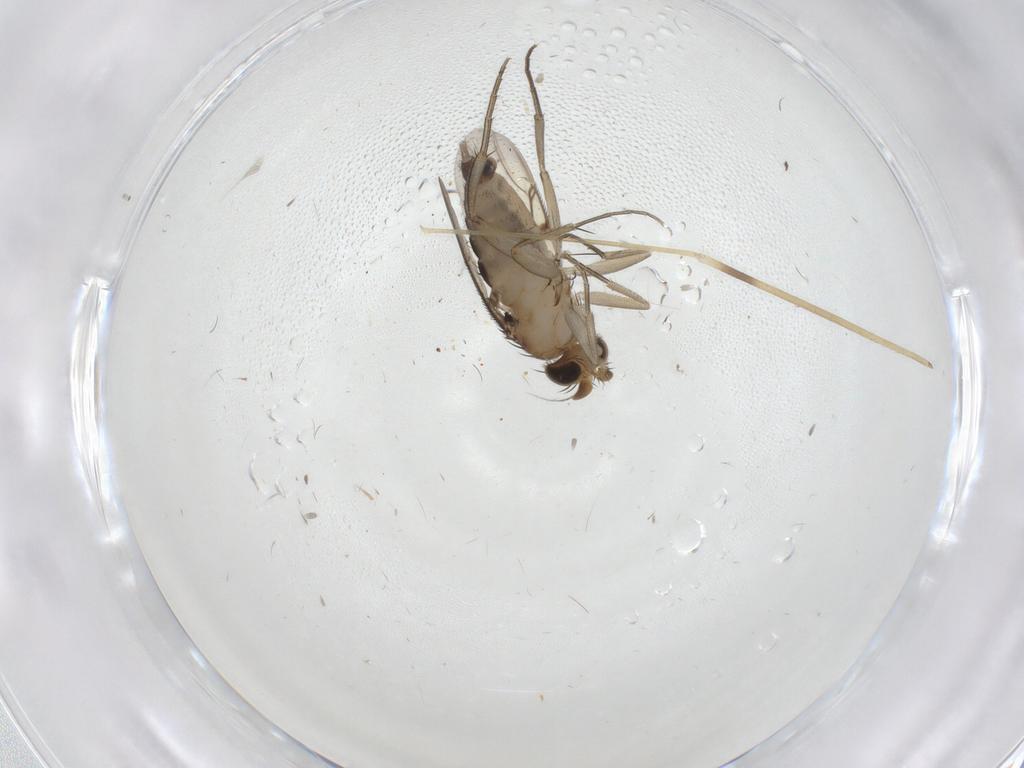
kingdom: Animalia
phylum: Arthropoda
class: Insecta
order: Diptera
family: Phoridae
